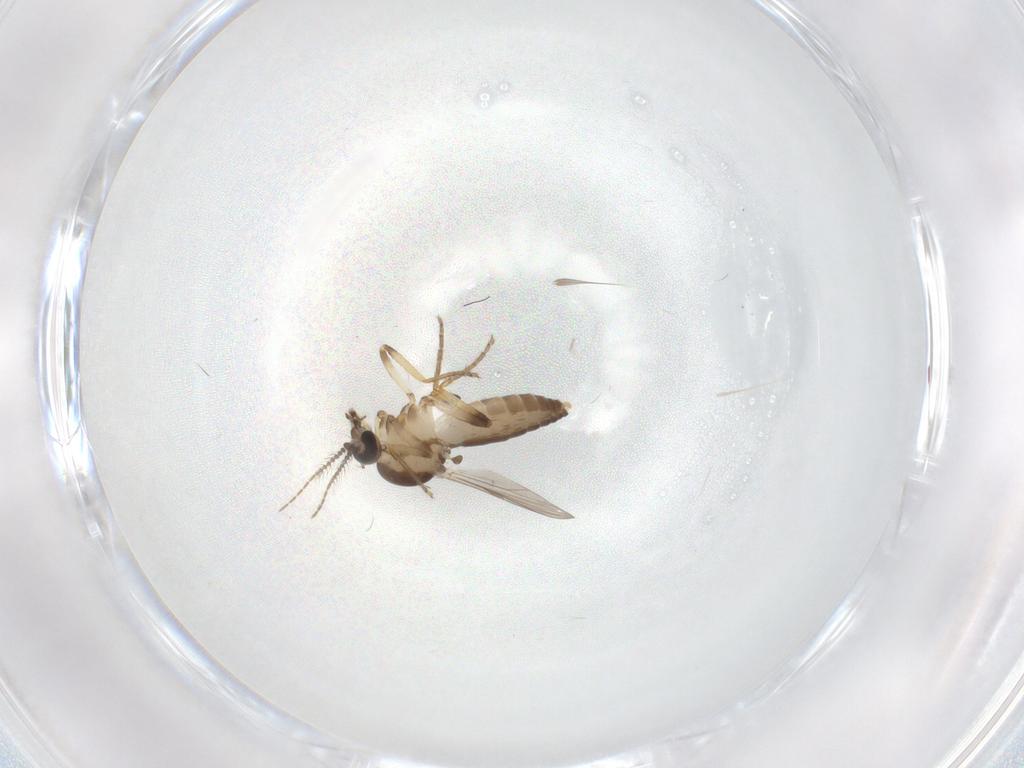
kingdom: Animalia
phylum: Arthropoda
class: Insecta
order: Diptera
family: Ceratopogonidae
